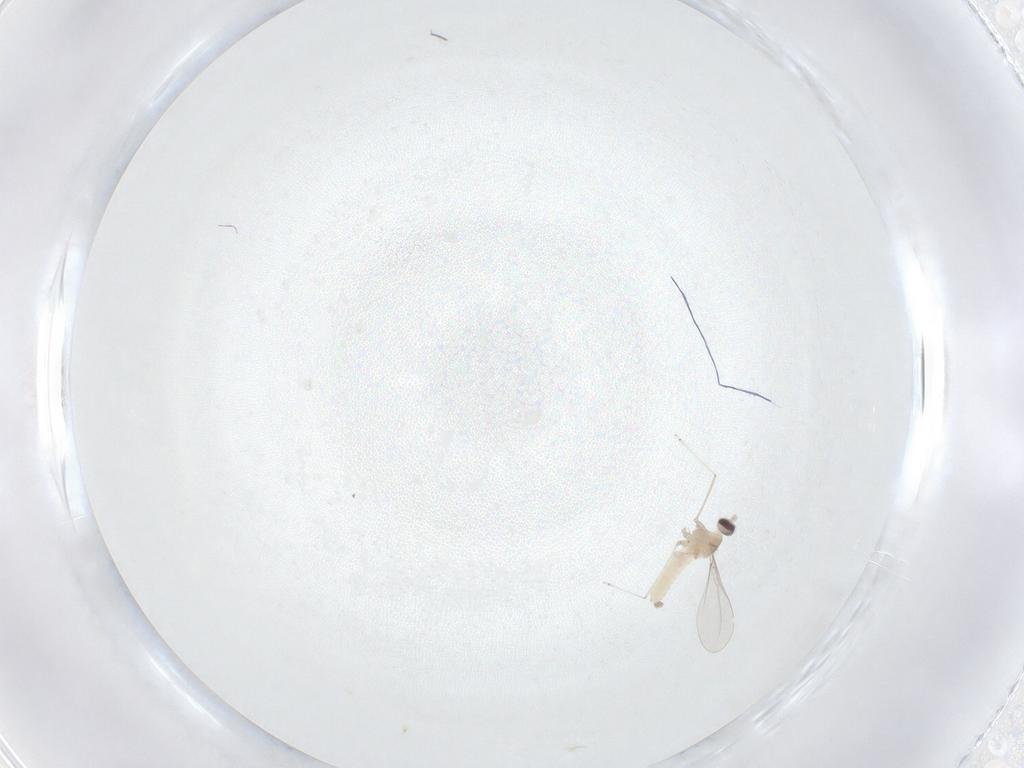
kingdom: Animalia
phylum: Arthropoda
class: Insecta
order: Diptera
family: Cecidomyiidae
